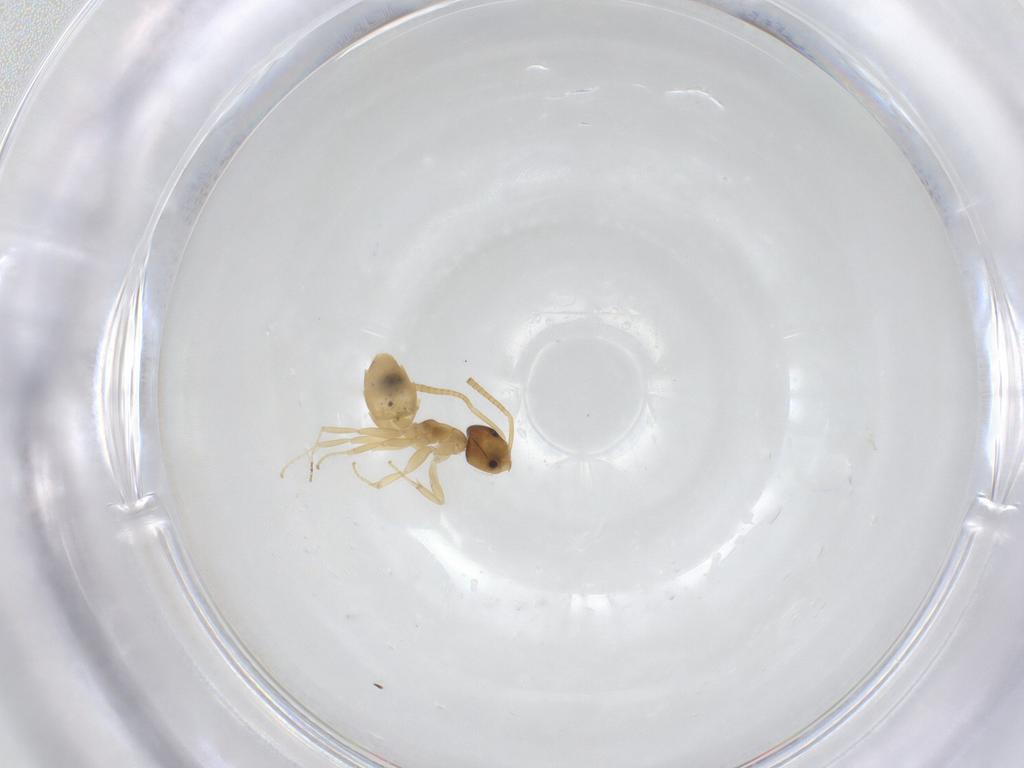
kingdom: Animalia
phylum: Arthropoda
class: Insecta
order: Hymenoptera
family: Formicidae
